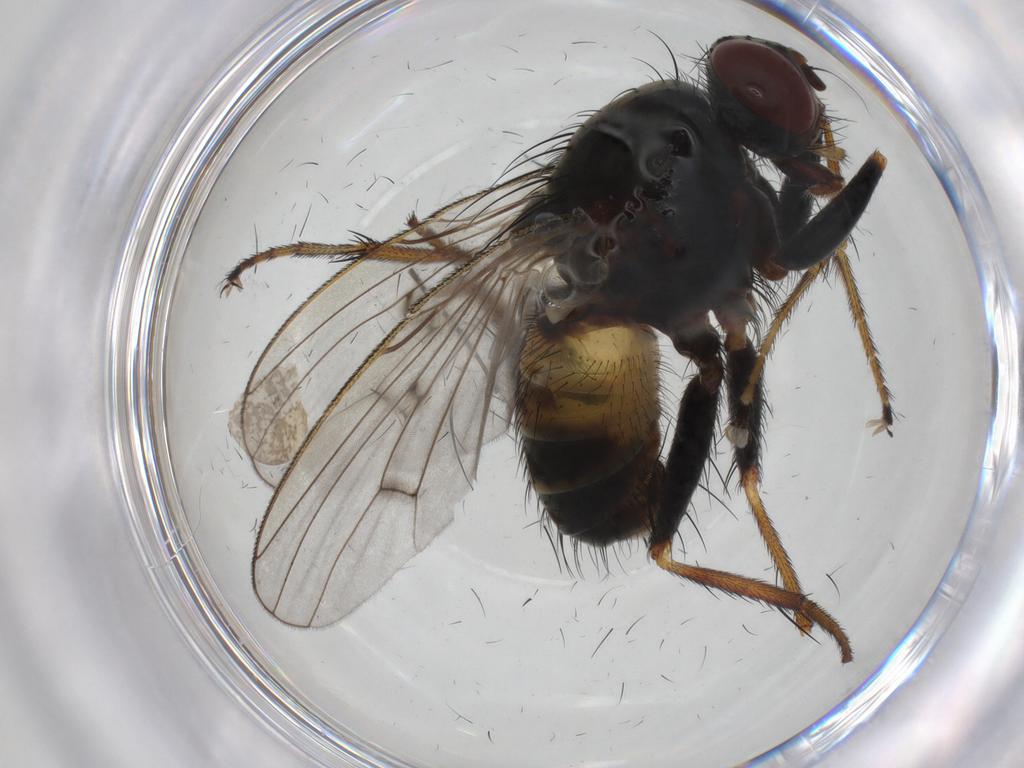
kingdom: Animalia
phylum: Arthropoda
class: Insecta
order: Diptera
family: Muscidae
